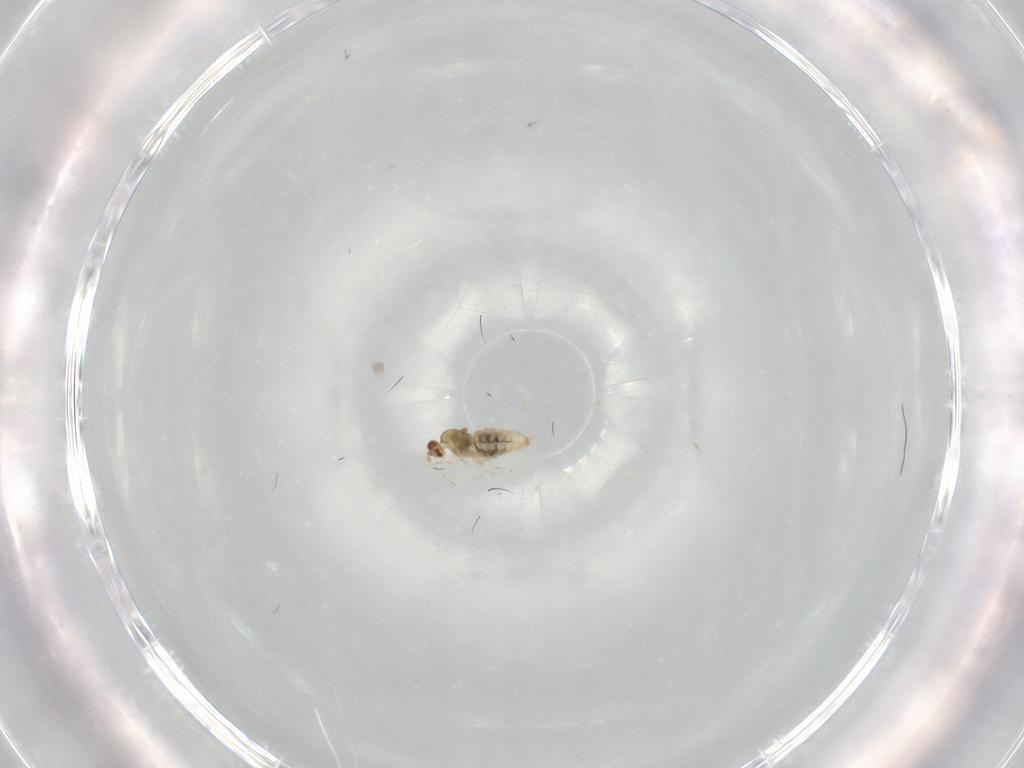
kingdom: Animalia
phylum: Arthropoda
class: Insecta
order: Diptera
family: Cecidomyiidae
